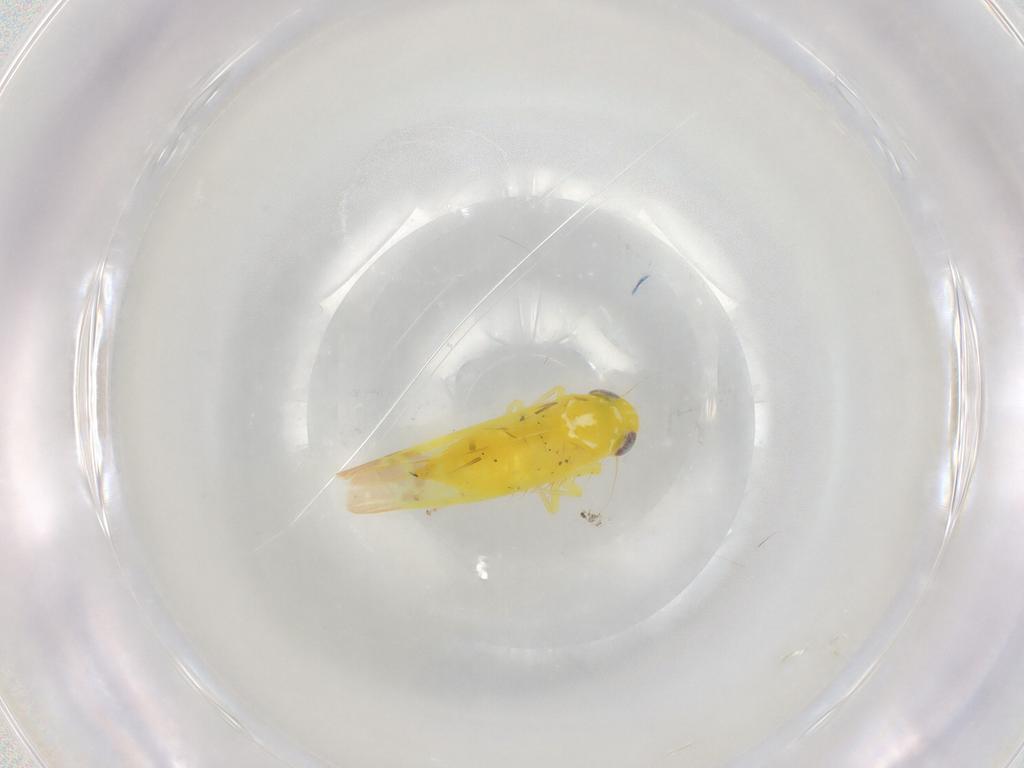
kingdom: Animalia
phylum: Arthropoda
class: Insecta
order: Hemiptera
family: Cicadellidae
